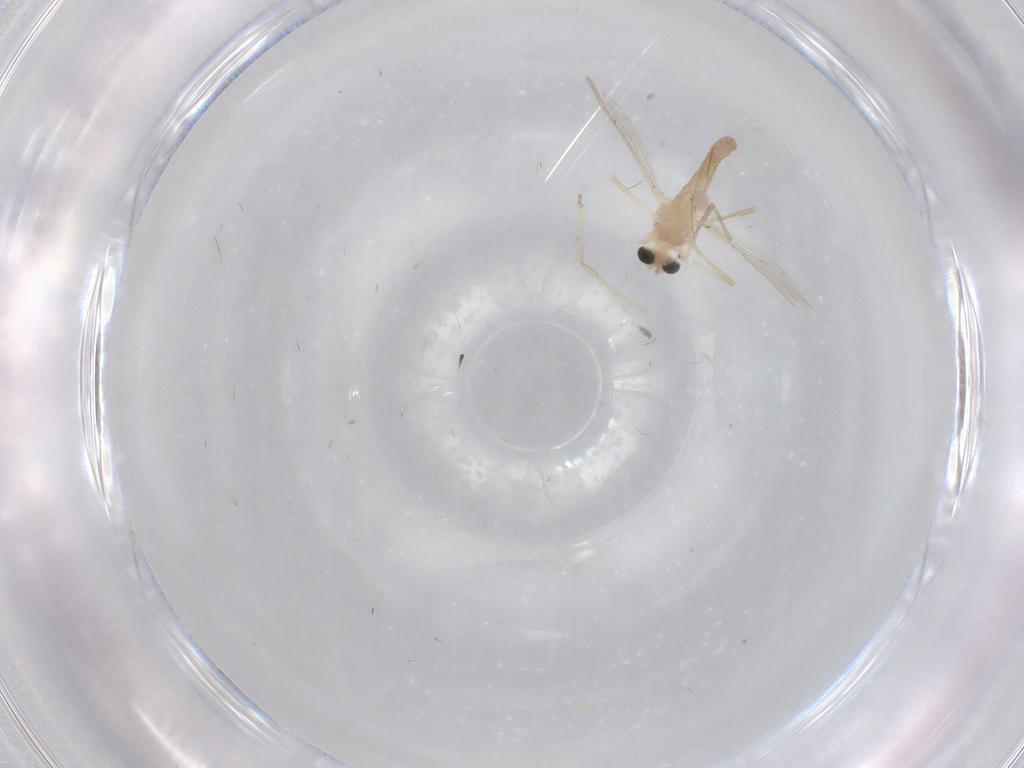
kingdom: Animalia
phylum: Arthropoda
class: Insecta
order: Diptera
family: Chironomidae
